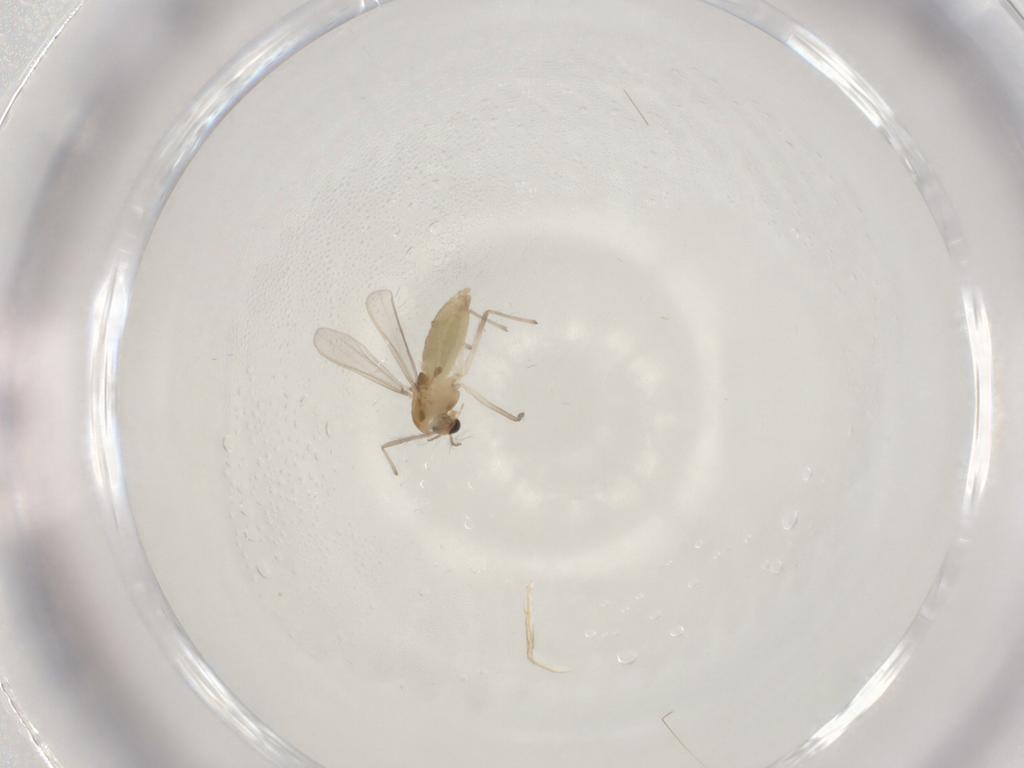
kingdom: Animalia
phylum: Arthropoda
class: Insecta
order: Diptera
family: Chironomidae
